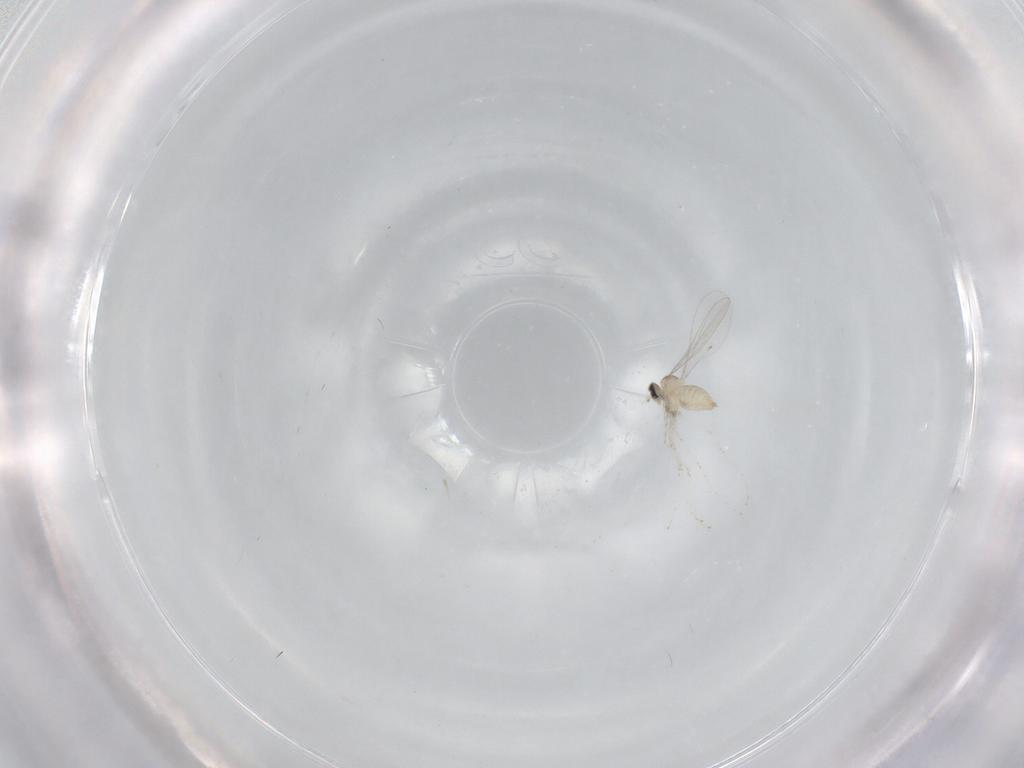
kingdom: Animalia
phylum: Arthropoda
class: Insecta
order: Diptera
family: Cecidomyiidae
